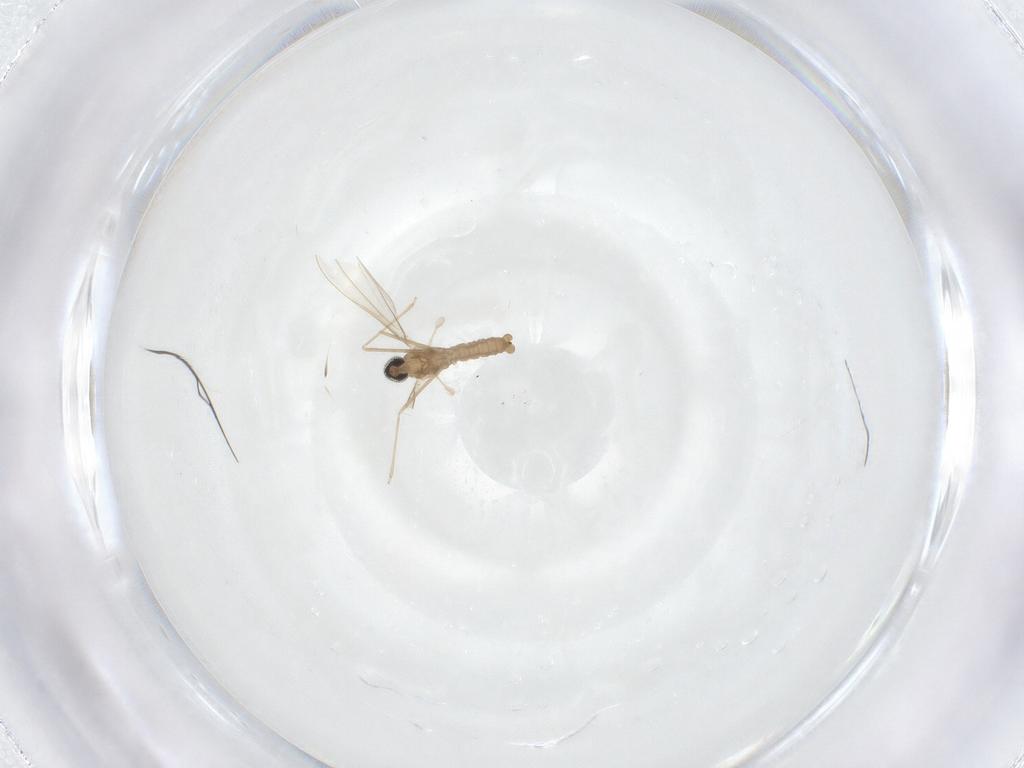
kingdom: Animalia
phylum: Arthropoda
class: Insecta
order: Diptera
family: Cecidomyiidae
